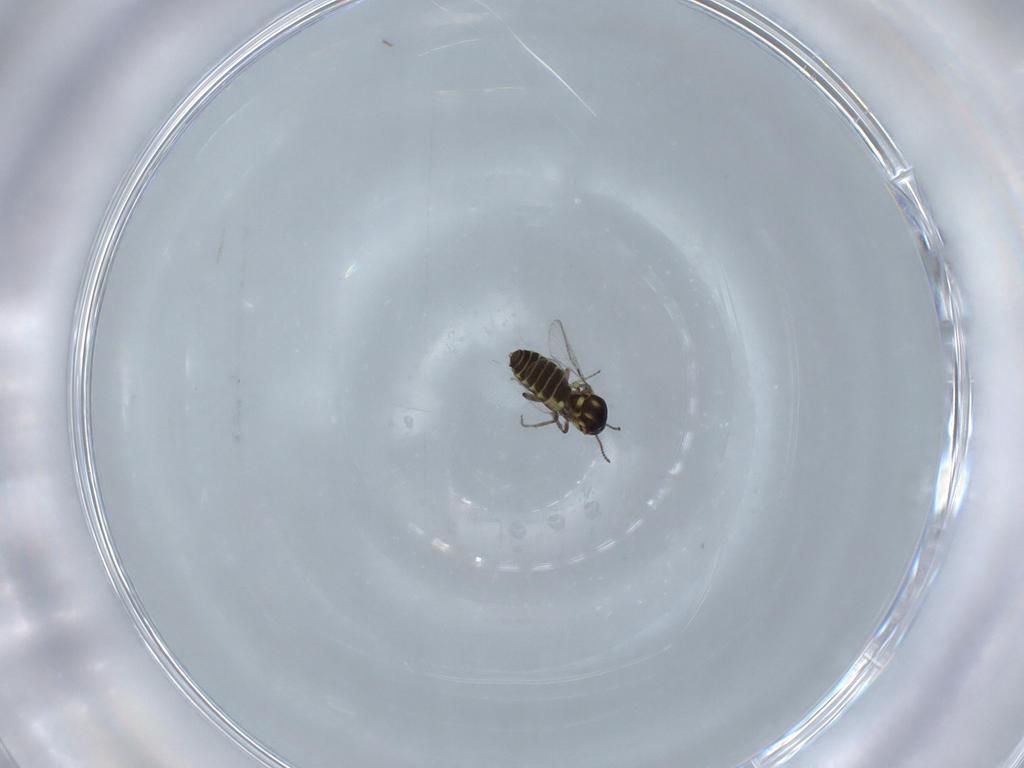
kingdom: Animalia
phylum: Arthropoda
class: Insecta
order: Diptera
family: Ceratopogonidae
